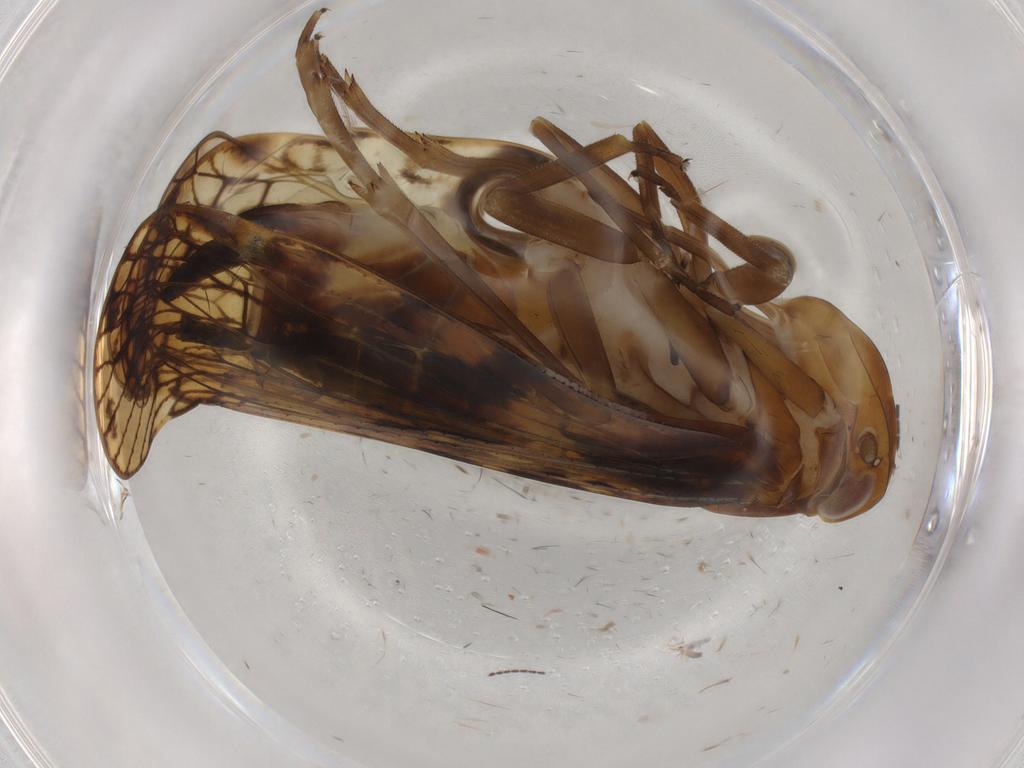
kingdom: Animalia
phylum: Arthropoda
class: Insecta
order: Hemiptera
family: Cixiidae
